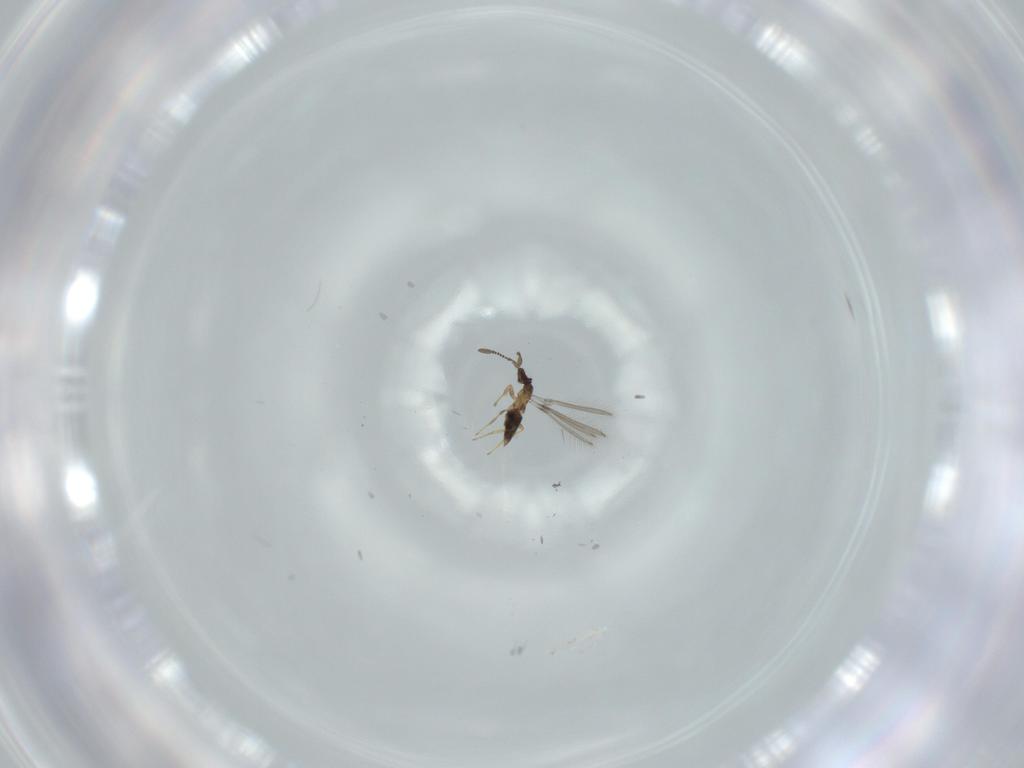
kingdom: Animalia
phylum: Arthropoda
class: Insecta
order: Hymenoptera
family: Mymaridae
